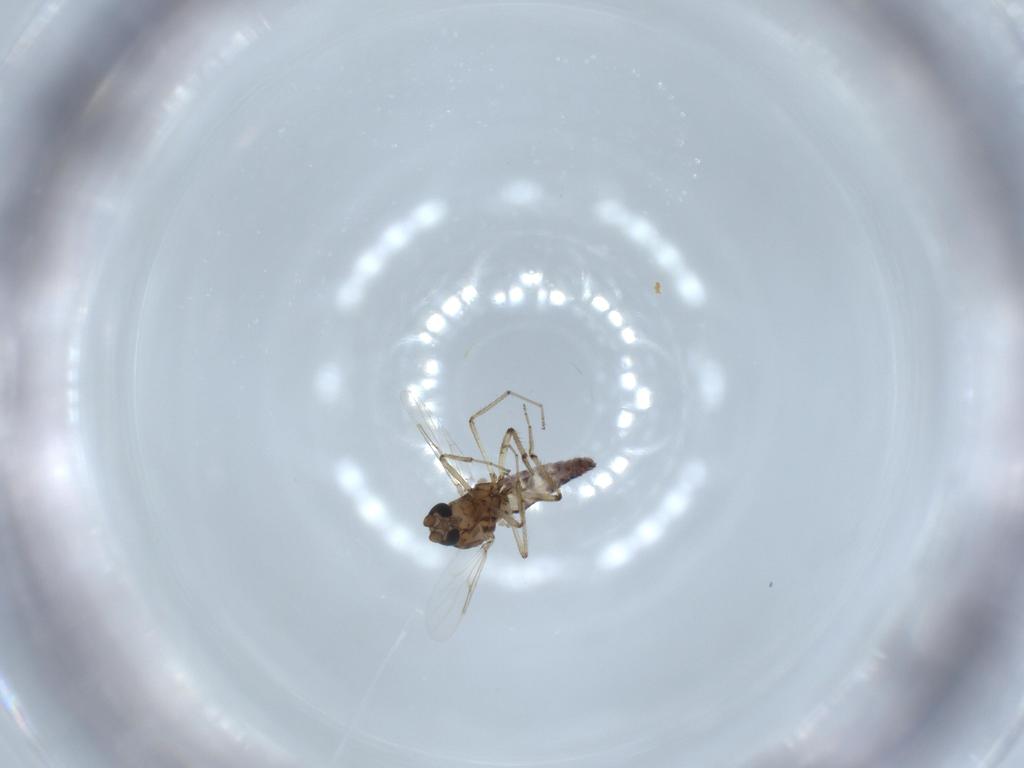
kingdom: Animalia
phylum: Arthropoda
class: Insecta
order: Diptera
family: Ceratopogonidae
